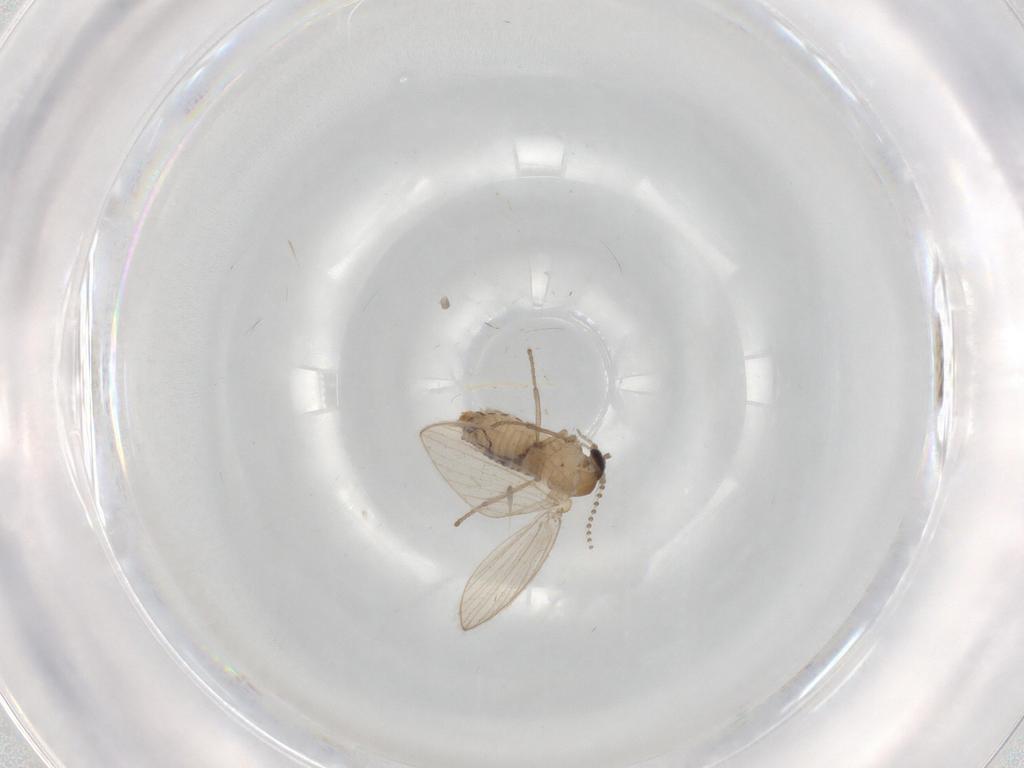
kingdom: Animalia
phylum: Arthropoda
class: Insecta
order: Diptera
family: Psychodidae
